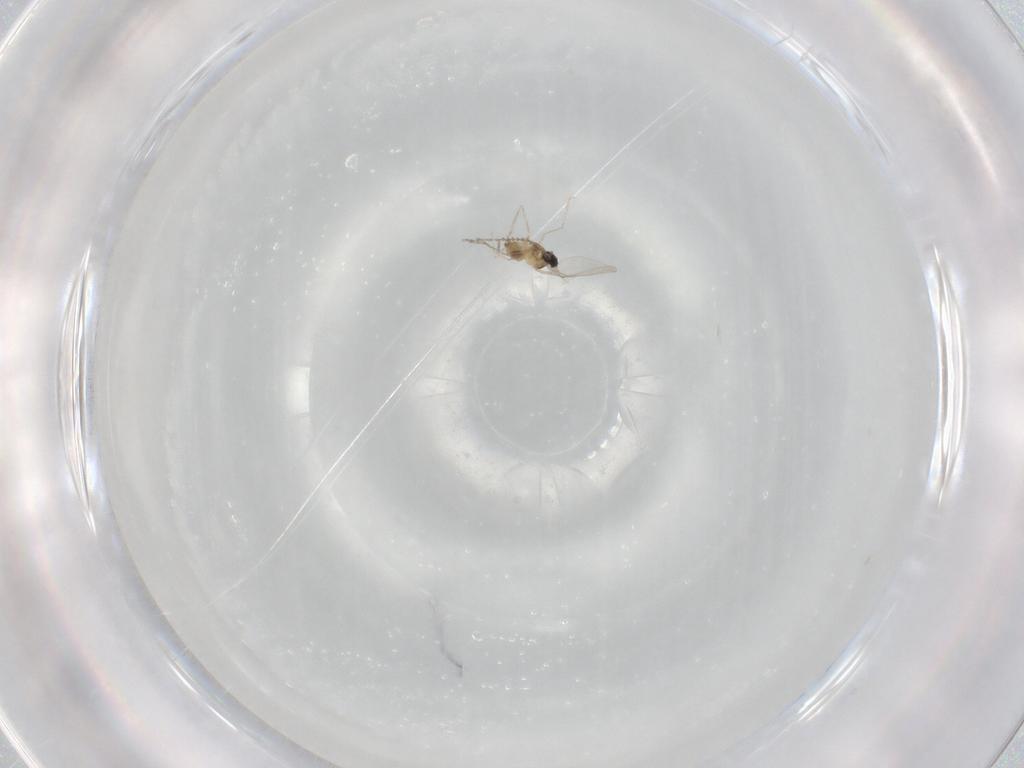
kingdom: Animalia
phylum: Arthropoda
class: Insecta
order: Diptera
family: Cecidomyiidae
